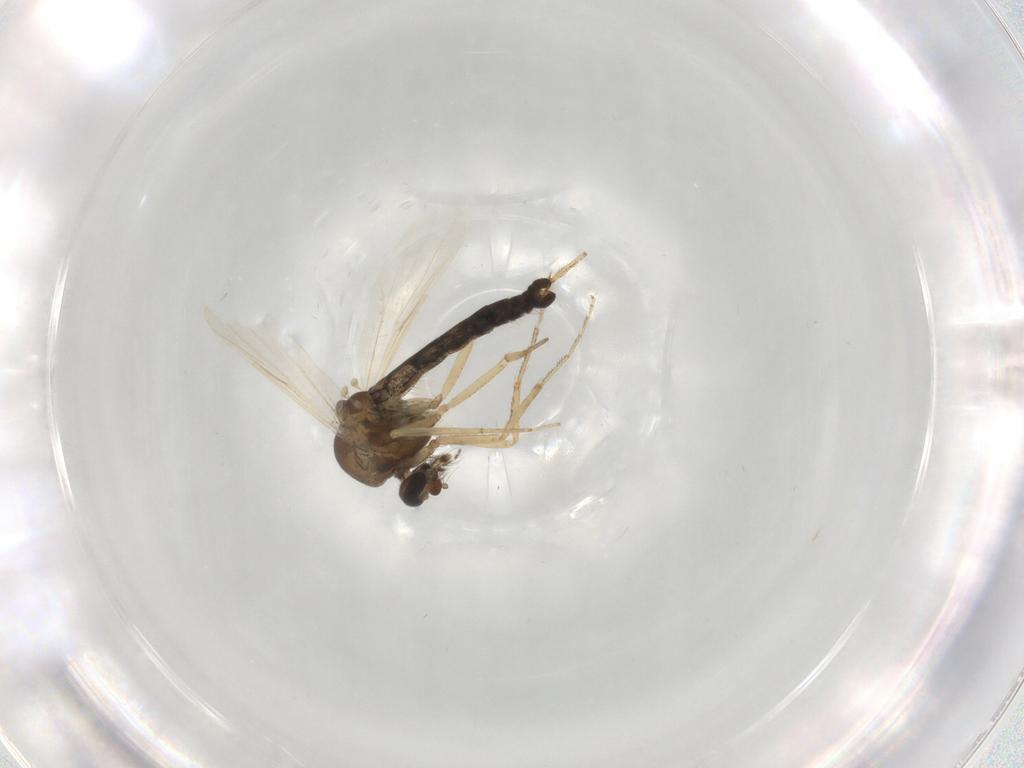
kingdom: Animalia
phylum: Arthropoda
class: Insecta
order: Diptera
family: Ceratopogonidae
